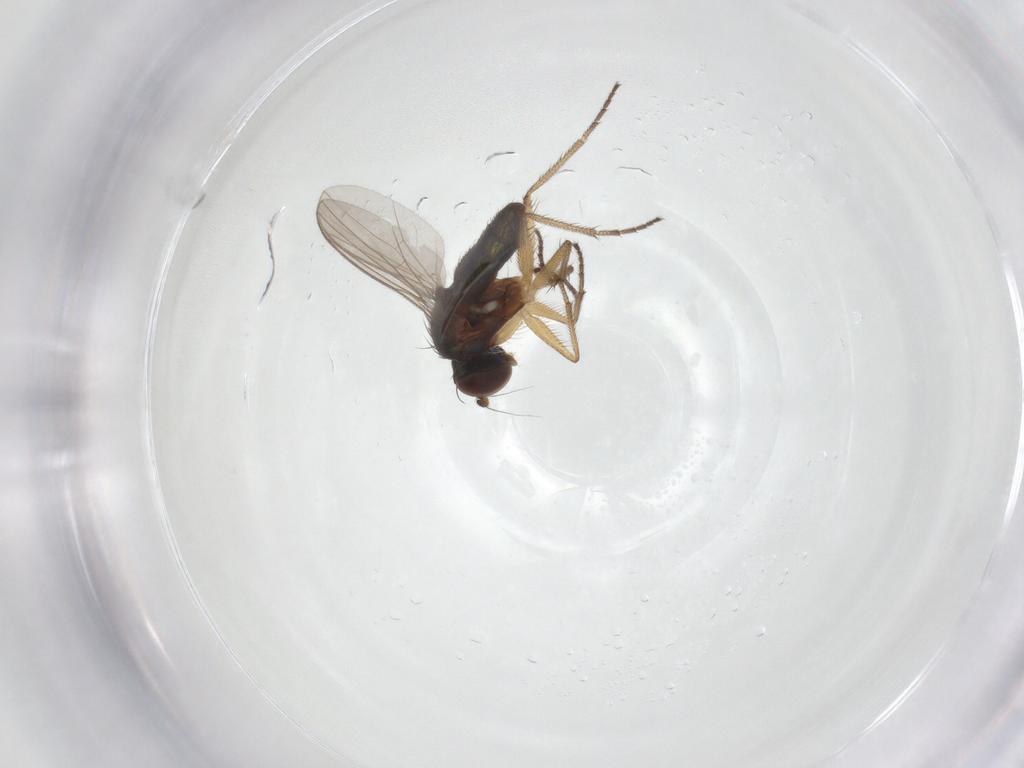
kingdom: Animalia
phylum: Arthropoda
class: Insecta
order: Diptera
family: Dolichopodidae
